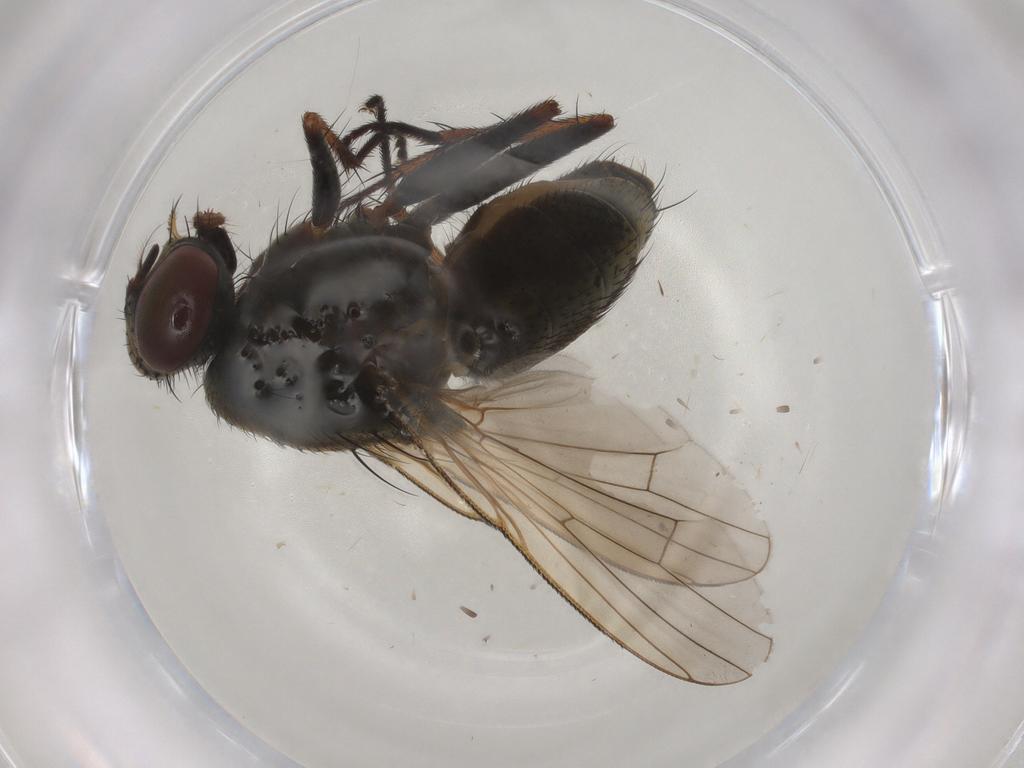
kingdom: Animalia
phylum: Arthropoda
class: Insecta
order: Diptera
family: Muscidae
